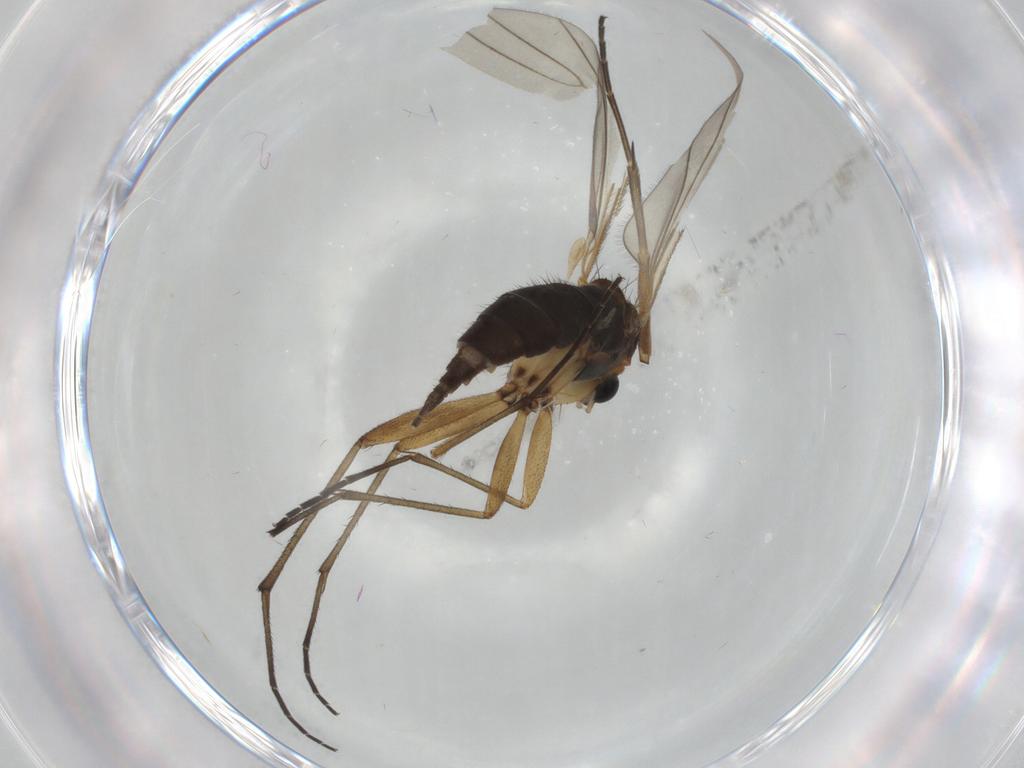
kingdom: Animalia
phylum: Arthropoda
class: Insecta
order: Diptera
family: Sciaridae
